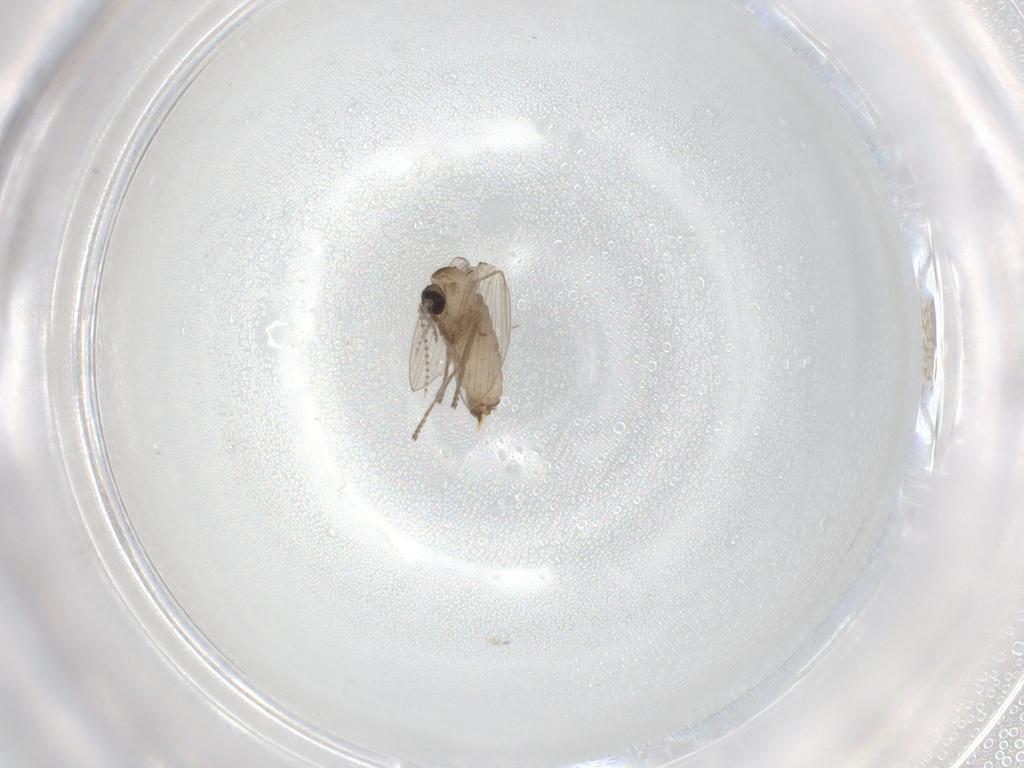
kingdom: Animalia
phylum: Arthropoda
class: Insecta
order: Diptera
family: Ceratopogonidae
